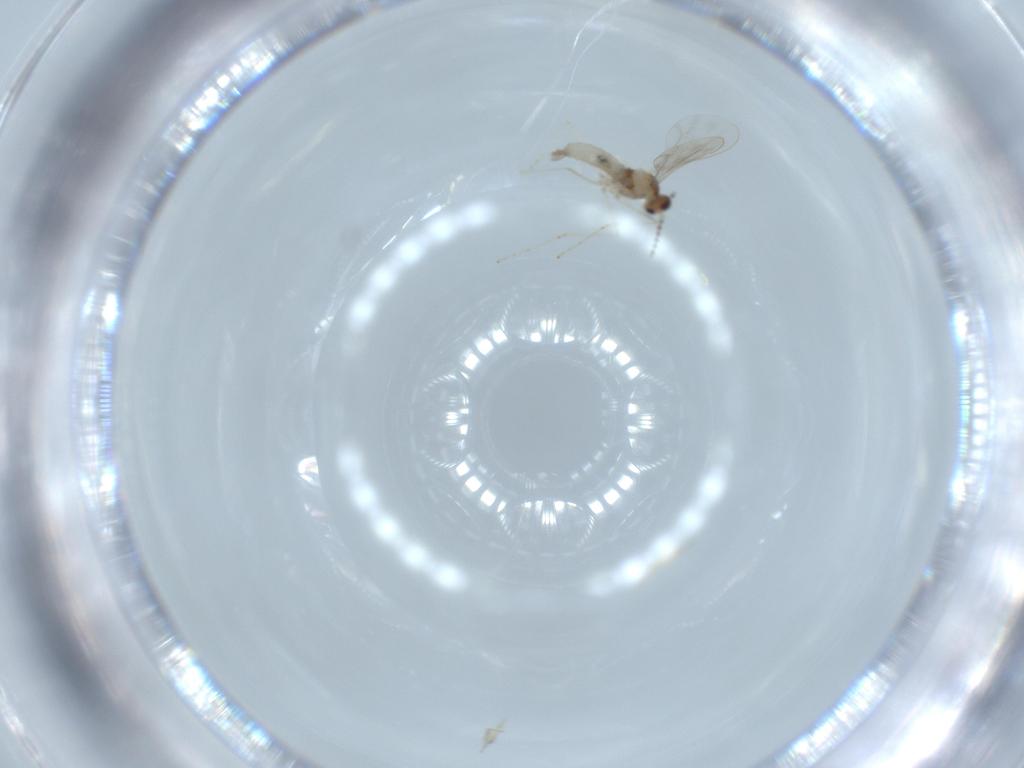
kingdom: Animalia
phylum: Arthropoda
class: Insecta
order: Diptera
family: Cecidomyiidae
